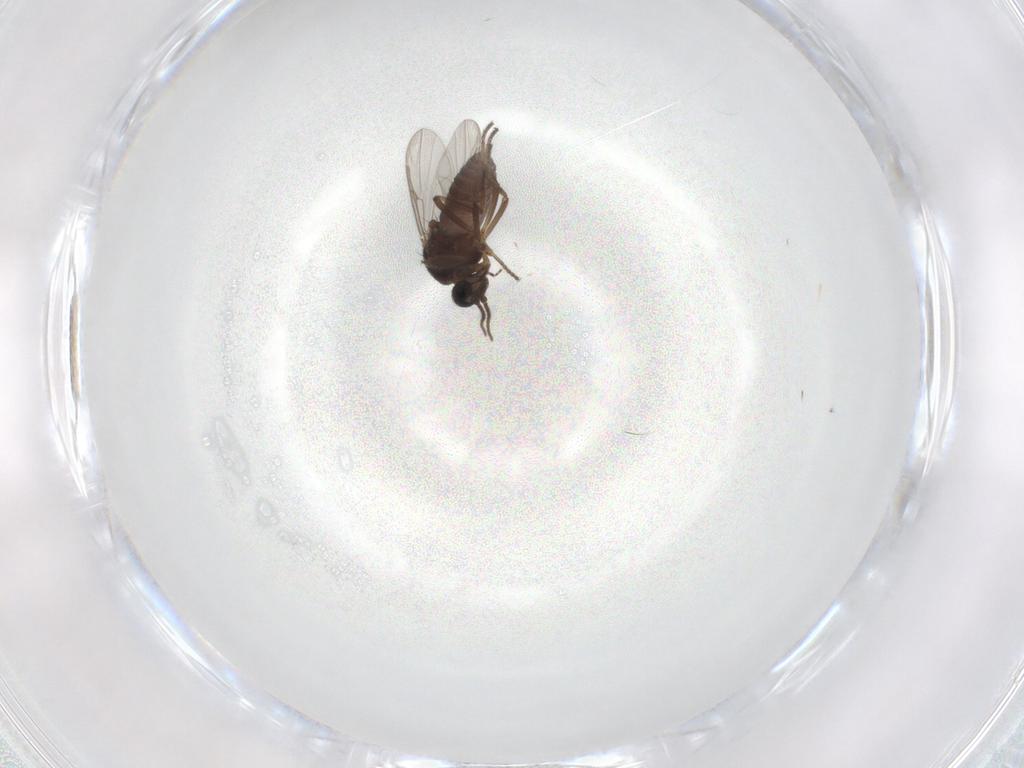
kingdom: Animalia
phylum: Arthropoda
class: Insecta
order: Diptera
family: Ceratopogonidae
